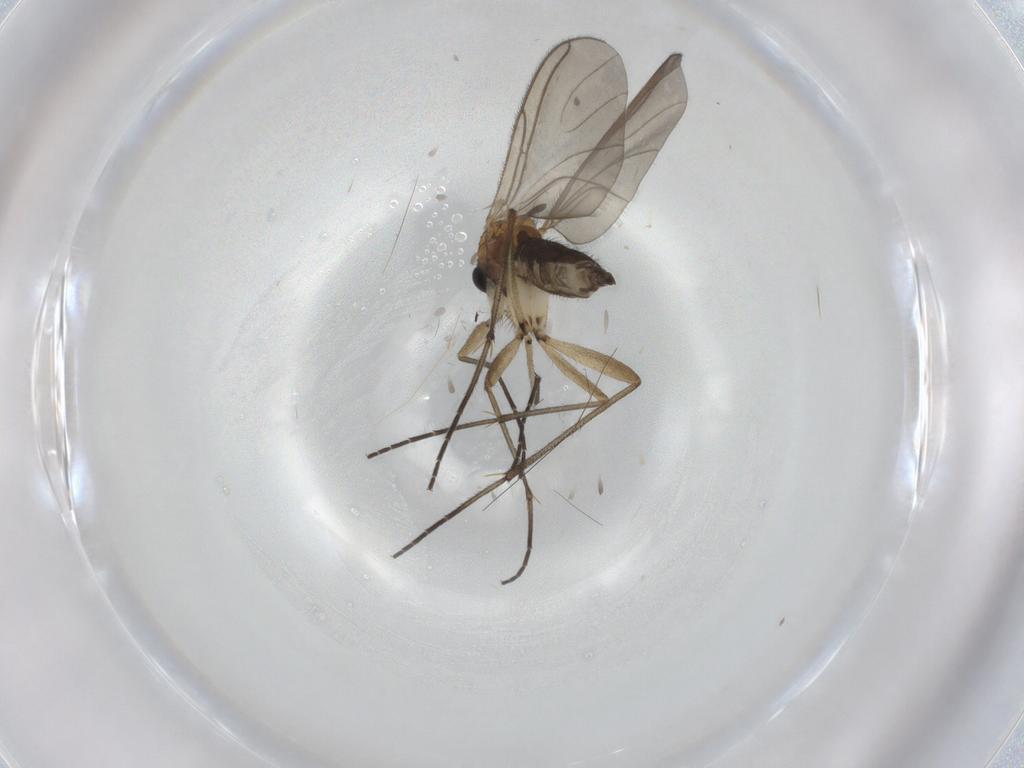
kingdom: Animalia
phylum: Arthropoda
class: Insecta
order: Diptera
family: Sciaridae
